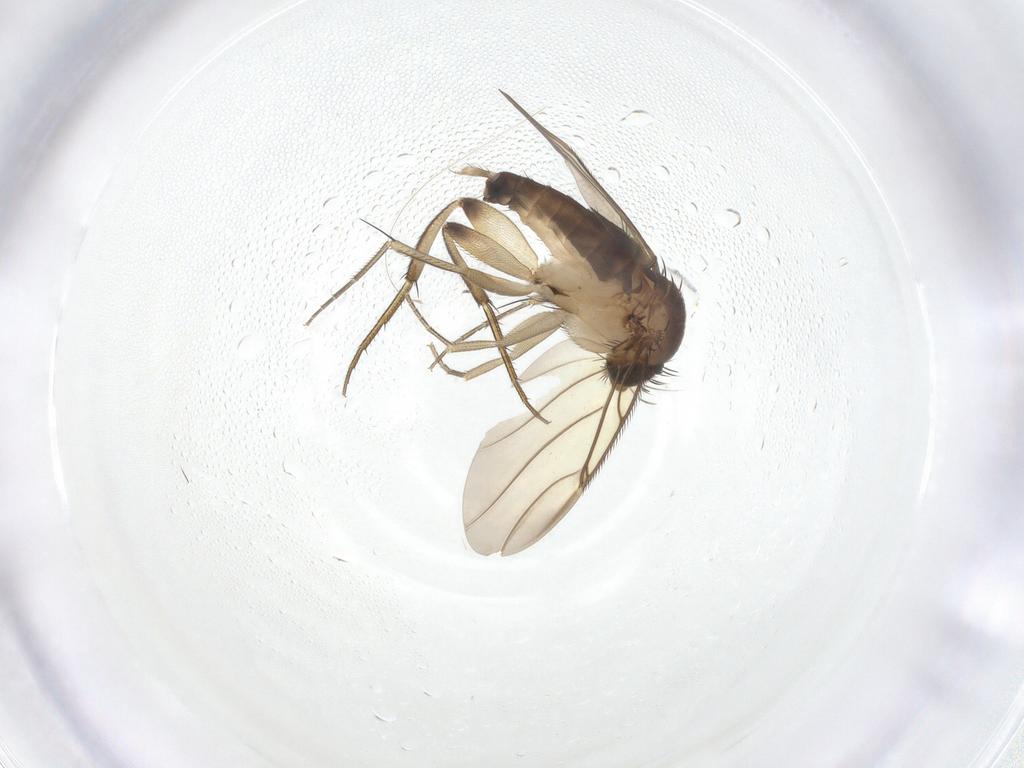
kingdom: Animalia
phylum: Arthropoda
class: Insecta
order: Diptera
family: Phoridae
